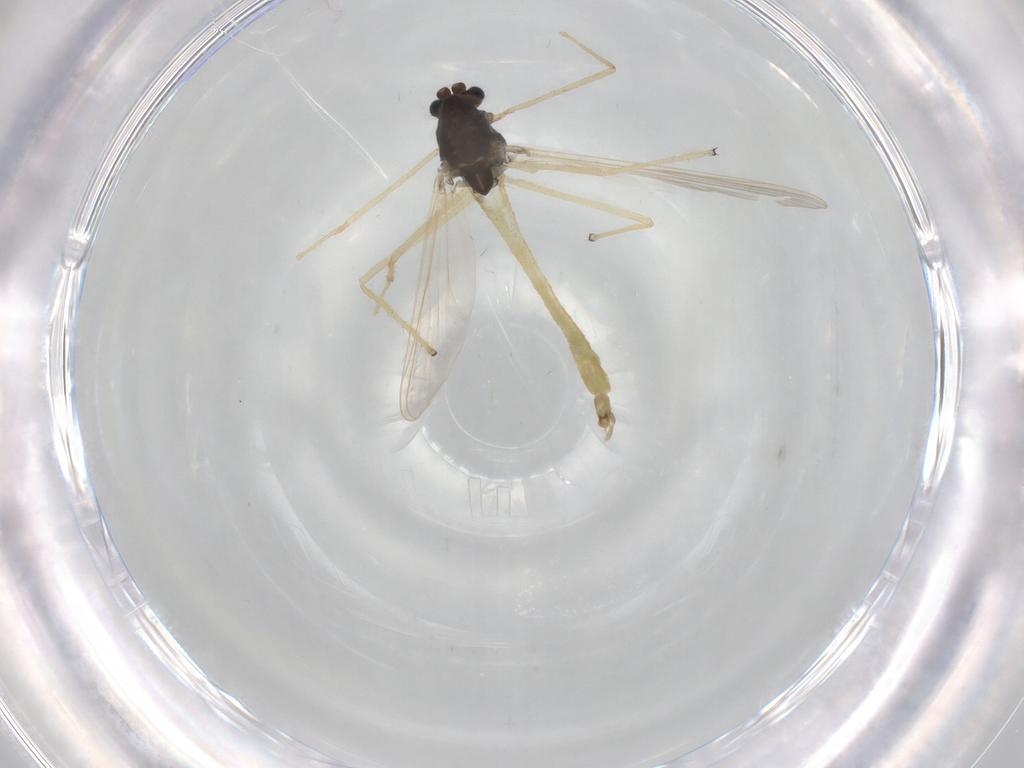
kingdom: Animalia
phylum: Arthropoda
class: Insecta
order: Diptera
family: Chironomidae
